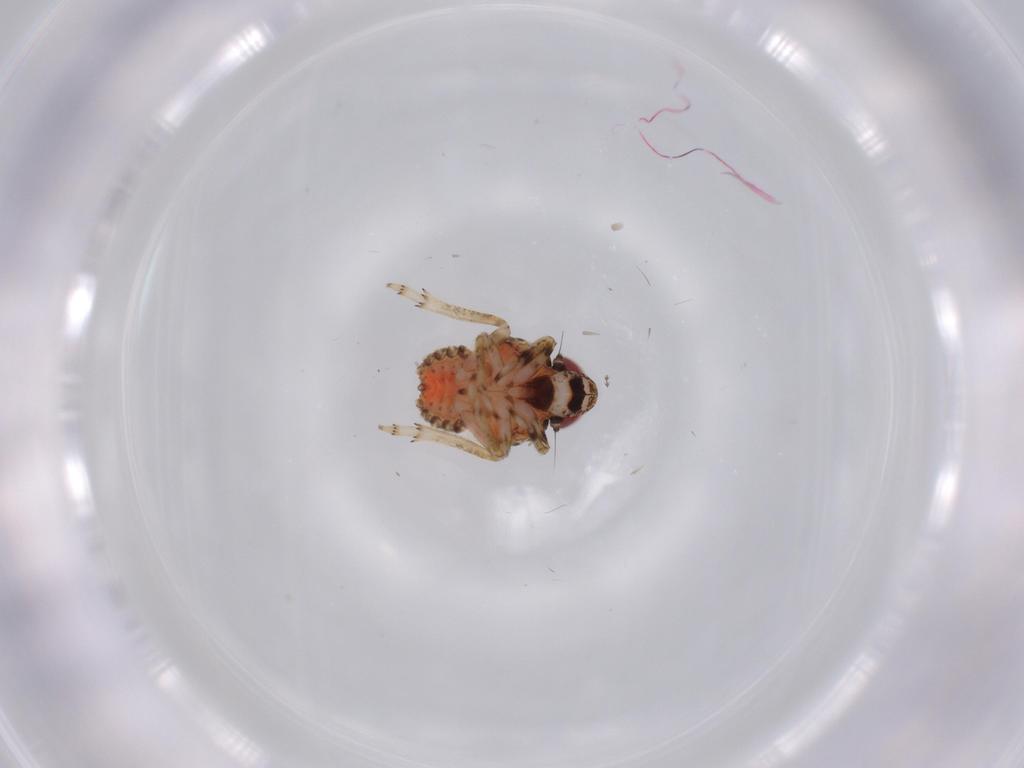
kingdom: Animalia
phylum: Arthropoda
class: Insecta
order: Hemiptera
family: Issidae
